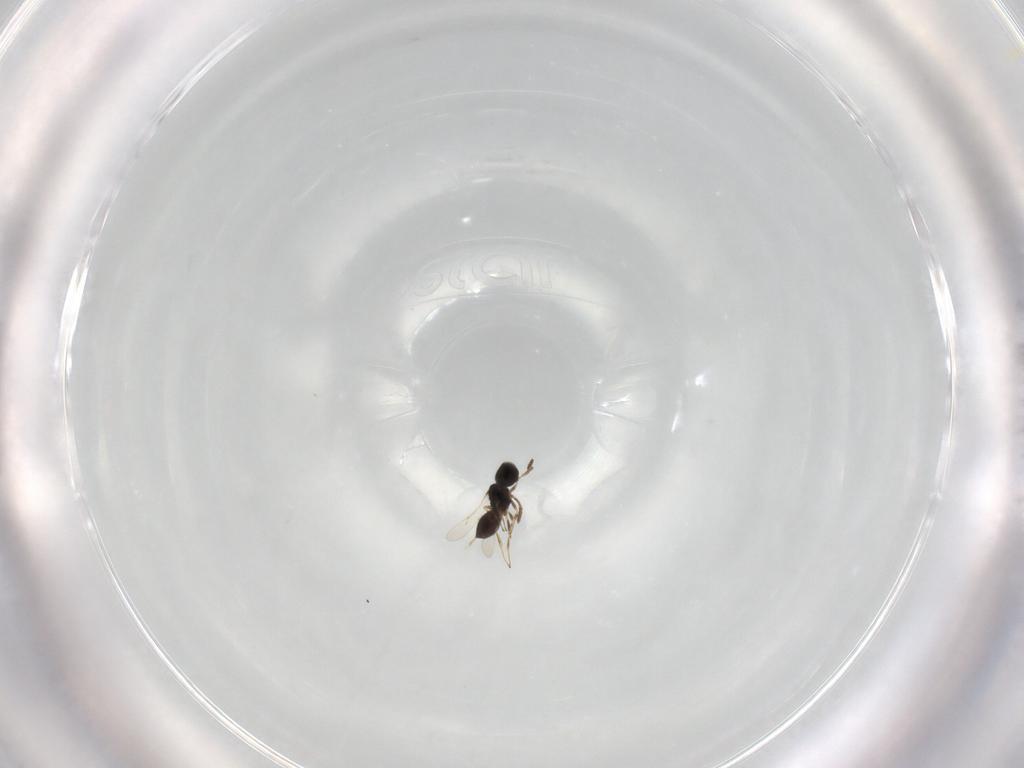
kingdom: Animalia
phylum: Arthropoda
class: Insecta
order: Hymenoptera
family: Scelionidae
